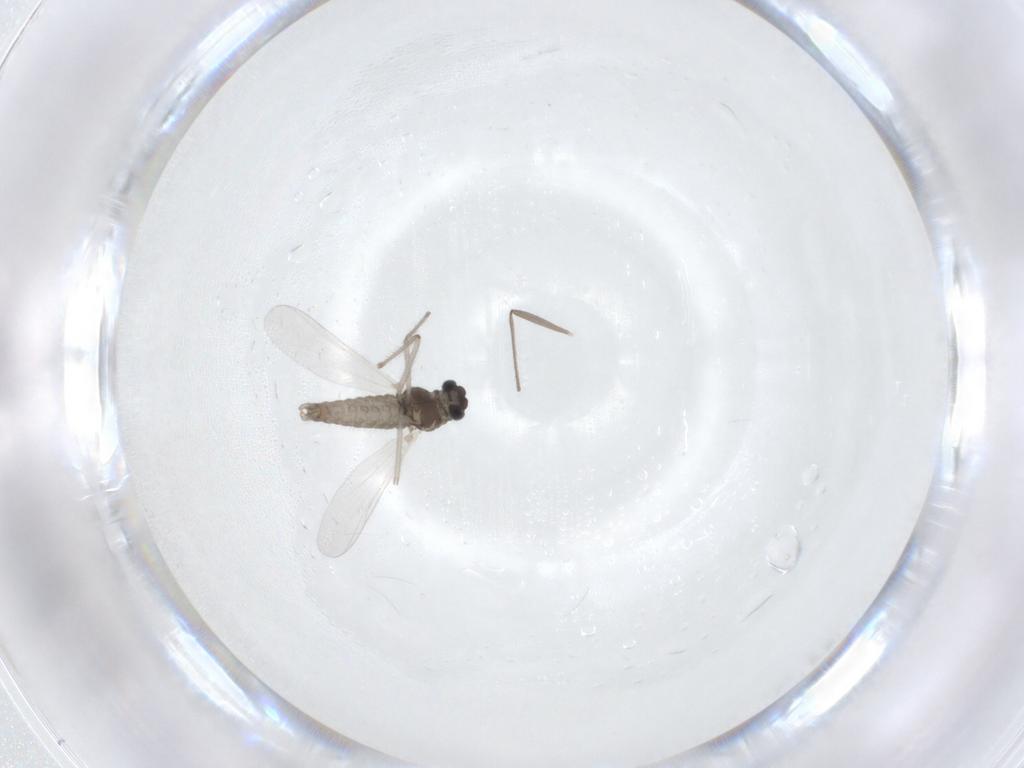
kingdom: Animalia
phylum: Arthropoda
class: Insecta
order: Diptera
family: Chironomidae
